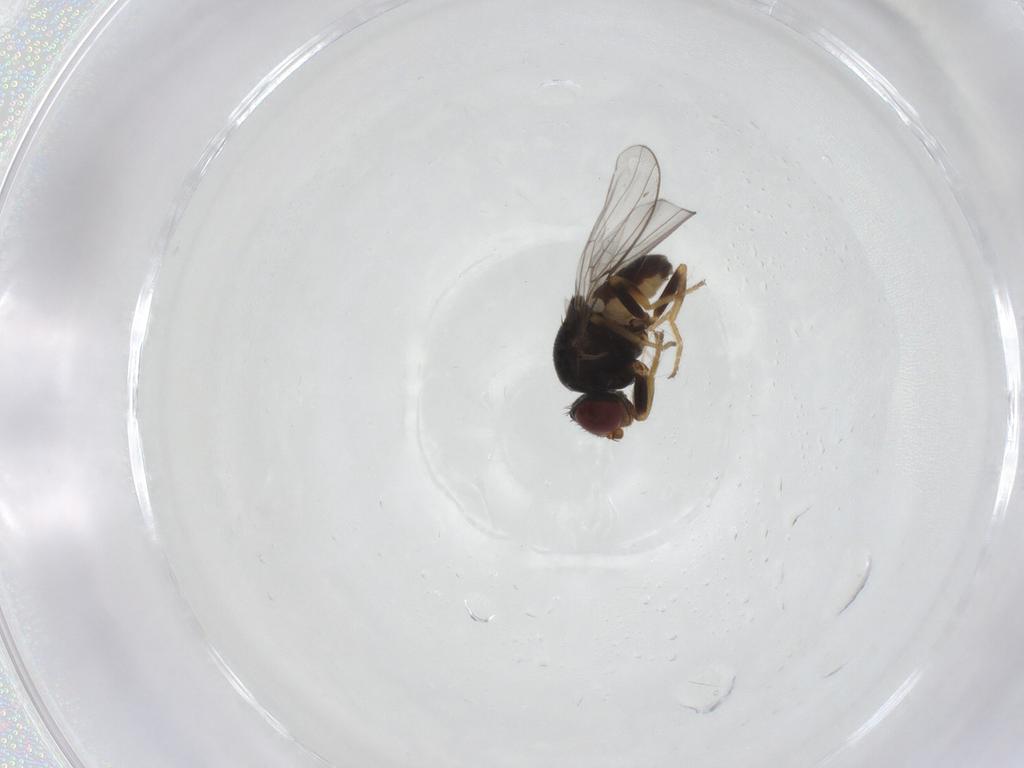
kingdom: Animalia
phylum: Arthropoda
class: Insecta
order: Diptera
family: Chloropidae
